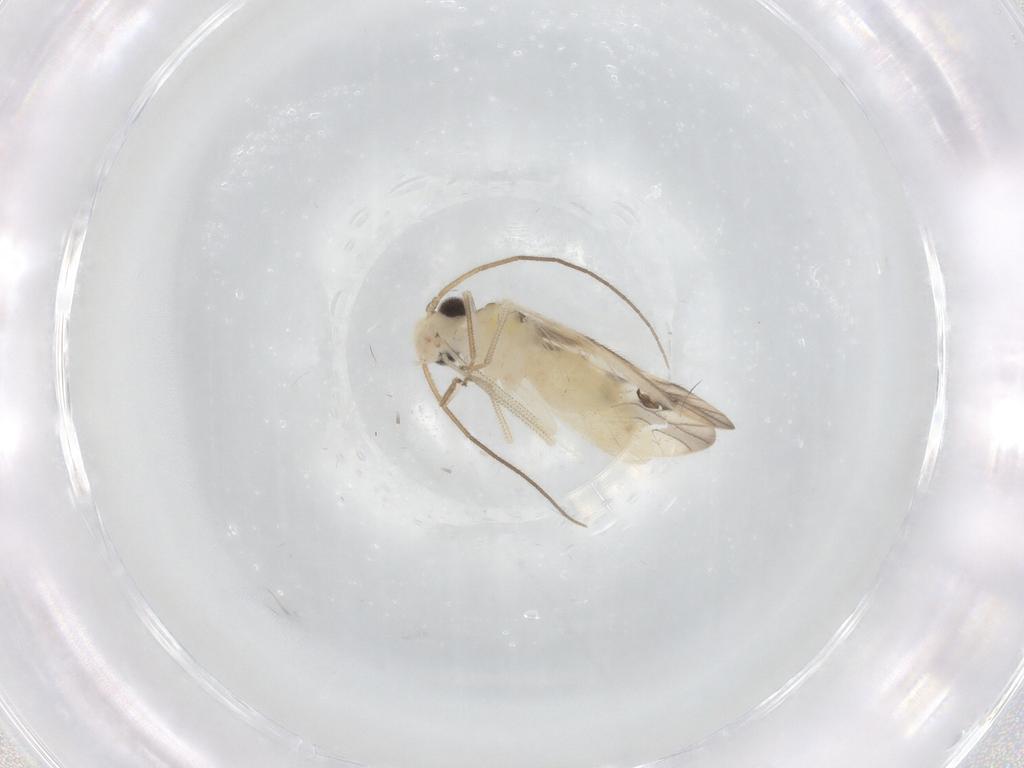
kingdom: Animalia
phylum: Arthropoda
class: Insecta
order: Psocodea
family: Caeciliusidae
